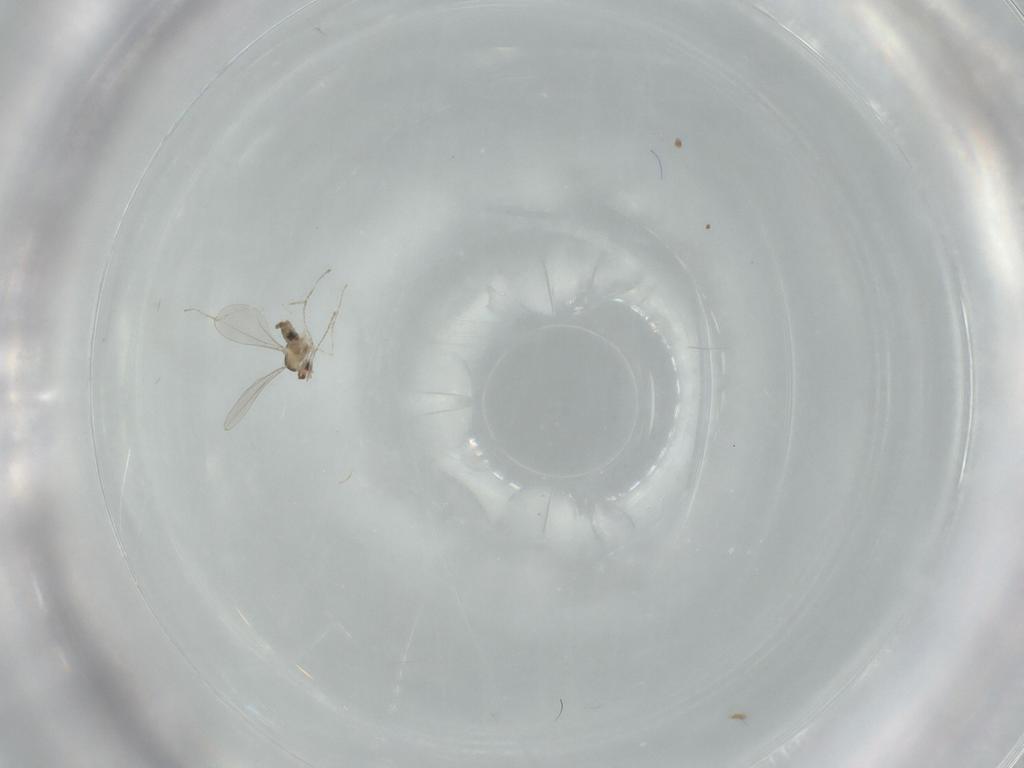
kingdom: Animalia
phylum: Arthropoda
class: Insecta
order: Diptera
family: Cecidomyiidae
